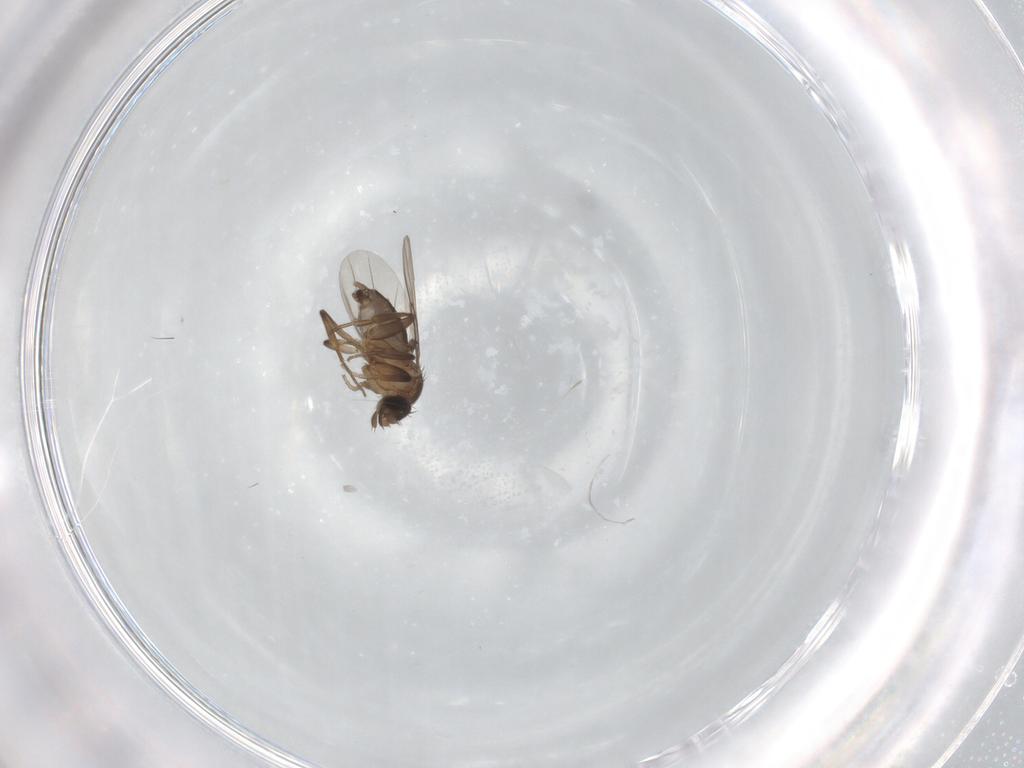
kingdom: Animalia
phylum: Arthropoda
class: Insecta
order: Diptera
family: Phoridae
